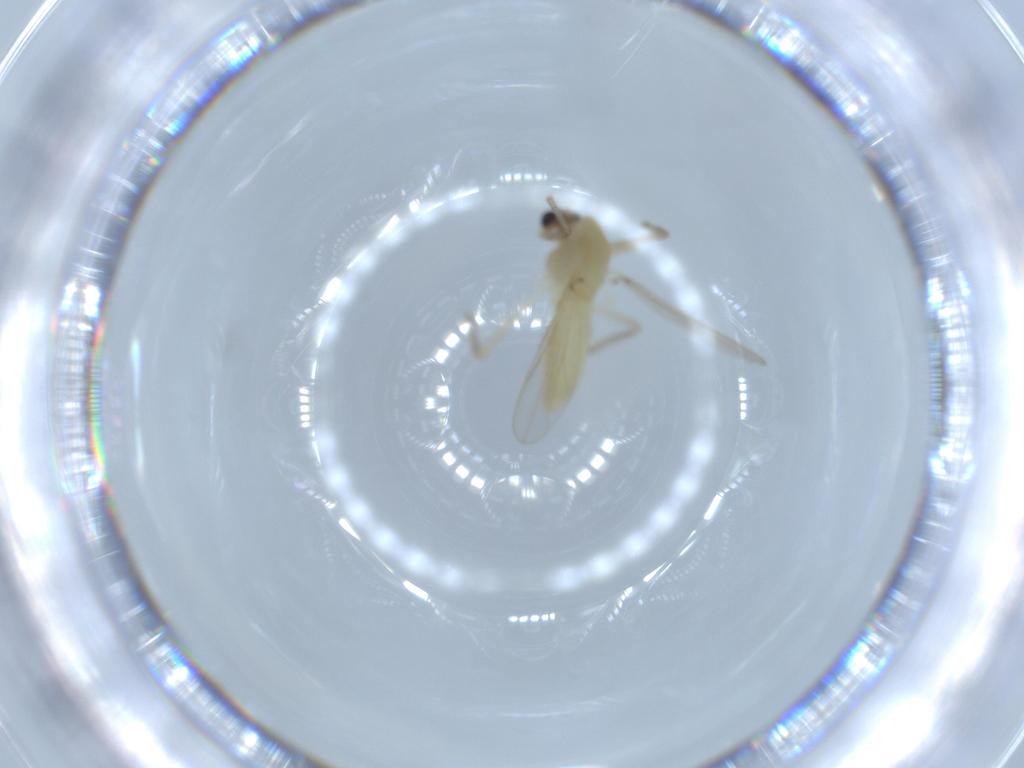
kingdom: Animalia
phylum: Arthropoda
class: Insecta
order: Diptera
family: Chironomidae
